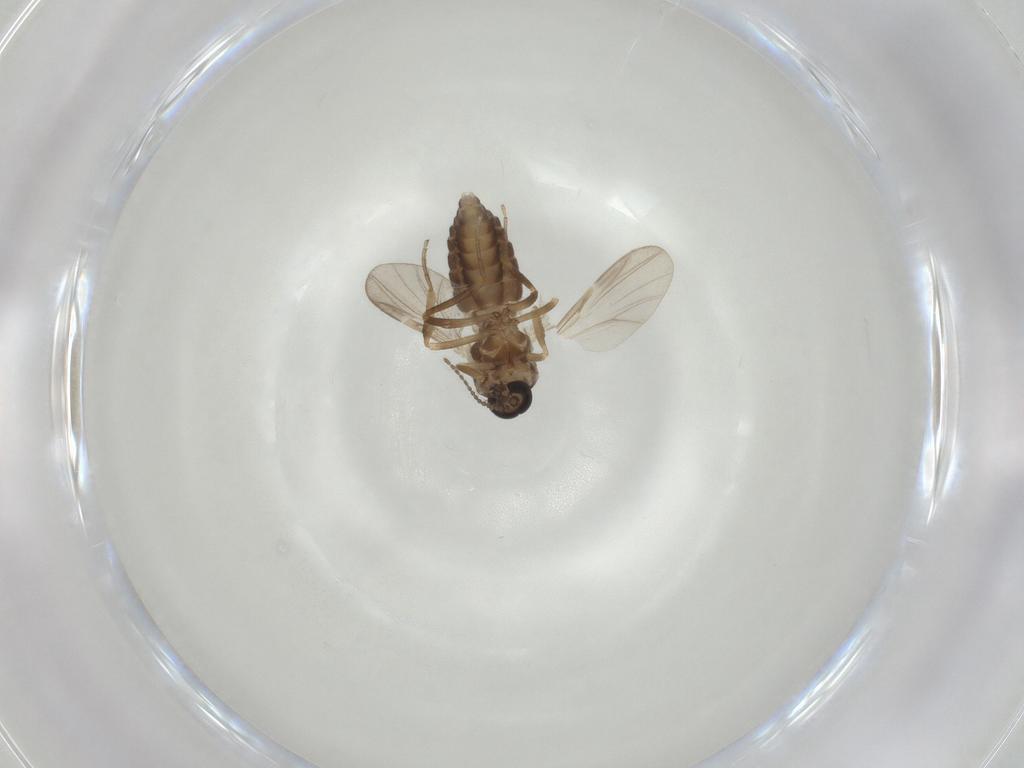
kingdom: Animalia
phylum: Arthropoda
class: Insecta
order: Diptera
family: Ceratopogonidae
